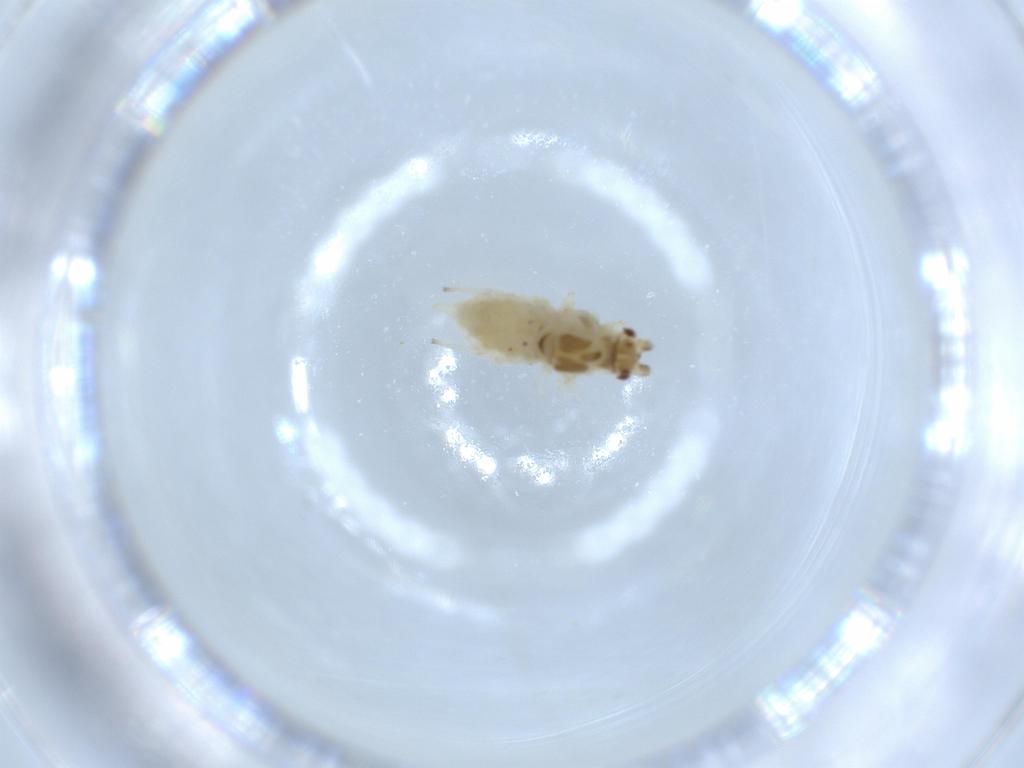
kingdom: Animalia
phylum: Arthropoda
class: Insecta
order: Hemiptera
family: Aphididae
